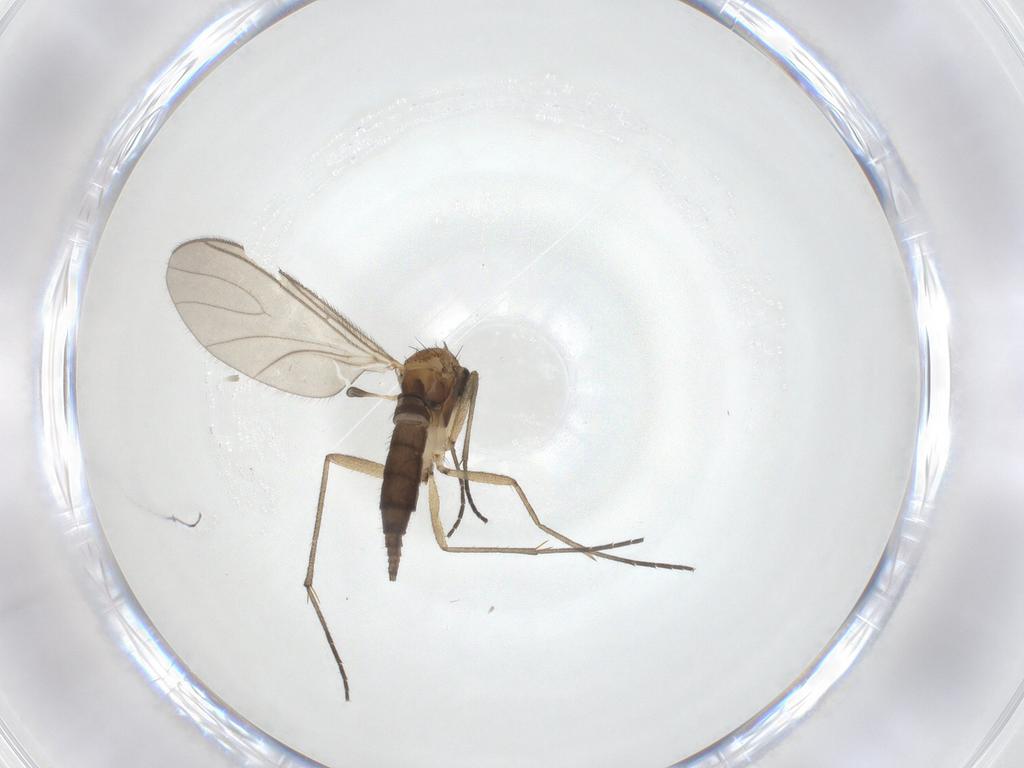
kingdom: Animalia
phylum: Arthropoda
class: Insecta
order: Diptera
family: Sciaridae
